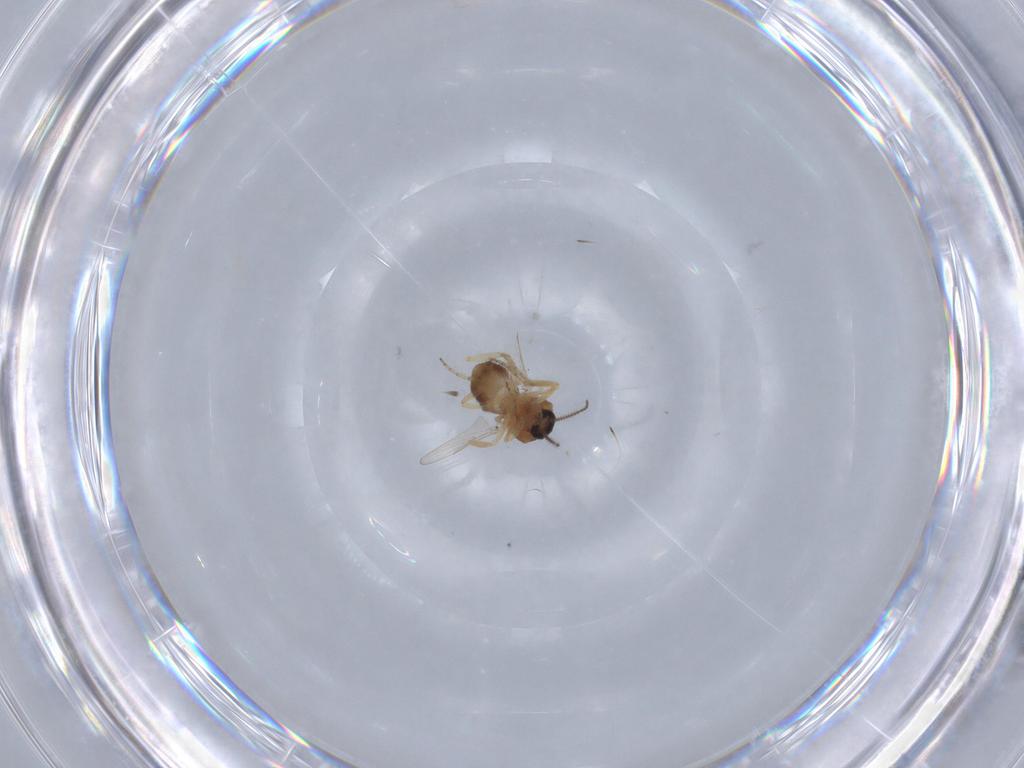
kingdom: Animalia
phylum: Arthropoda
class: Insecta
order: Diptera
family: Ceratopogonidae
